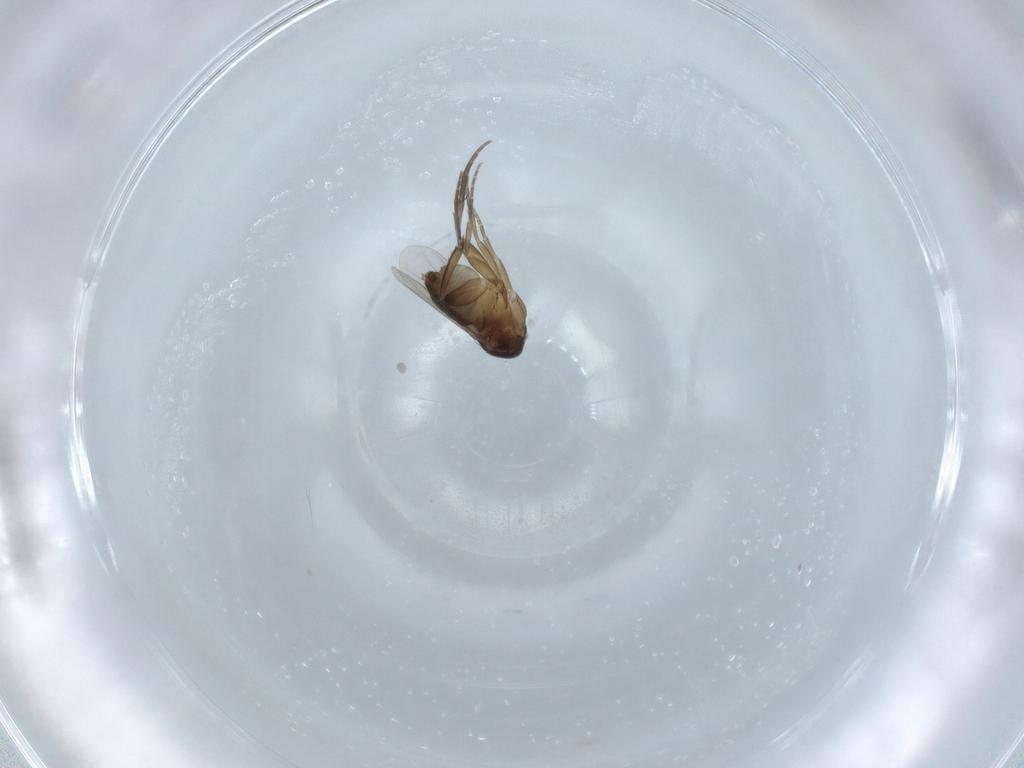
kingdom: Animalia
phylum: Arthropoda
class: Insecta
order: Diptera
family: Phoridae
